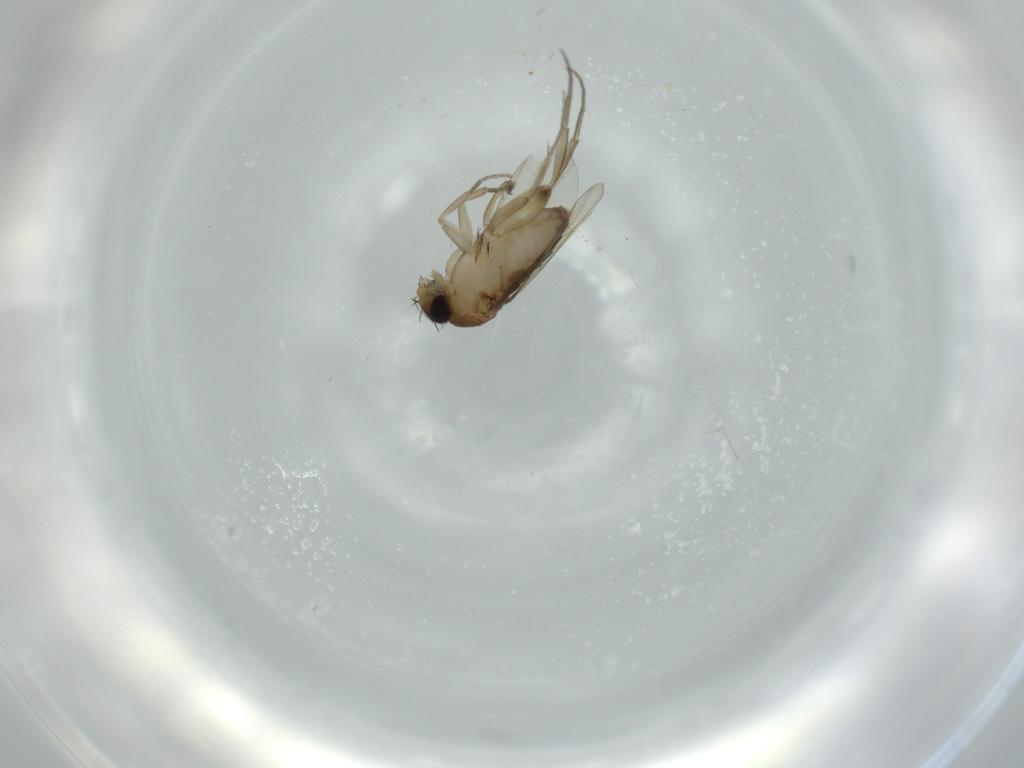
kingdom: Animalia
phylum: Arthropoda
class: Insecta
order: Diptera
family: Phoridae
